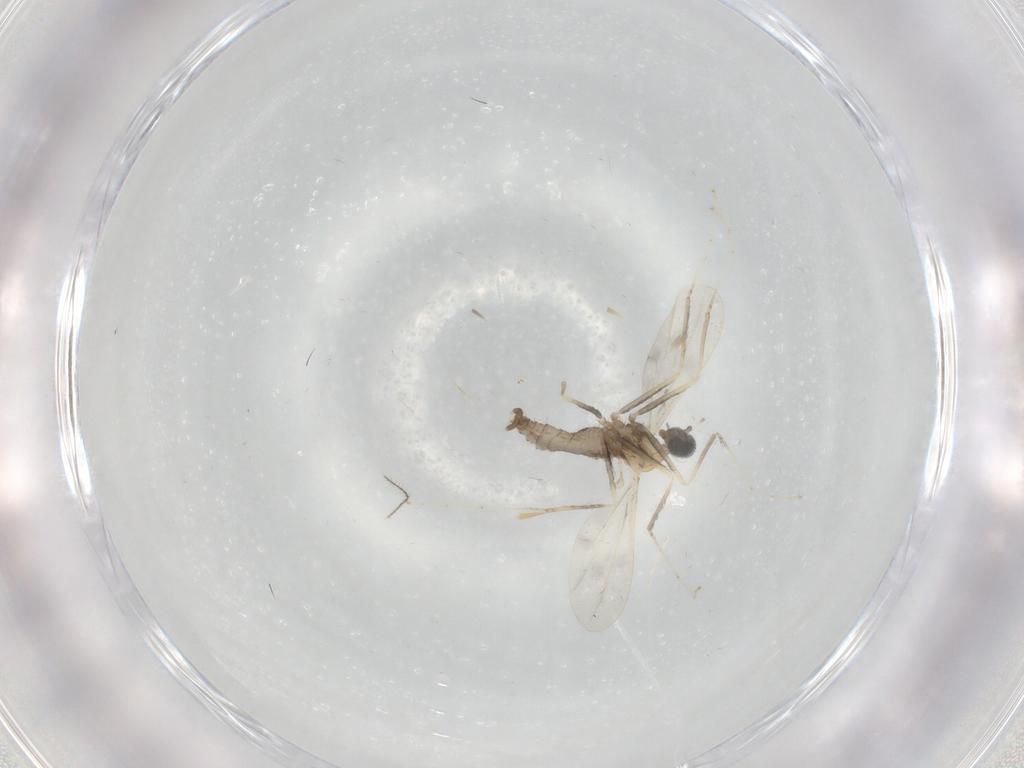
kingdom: Animalia
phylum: Arthropoda
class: Insecta
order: Diptera
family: Cecidomyiidae
